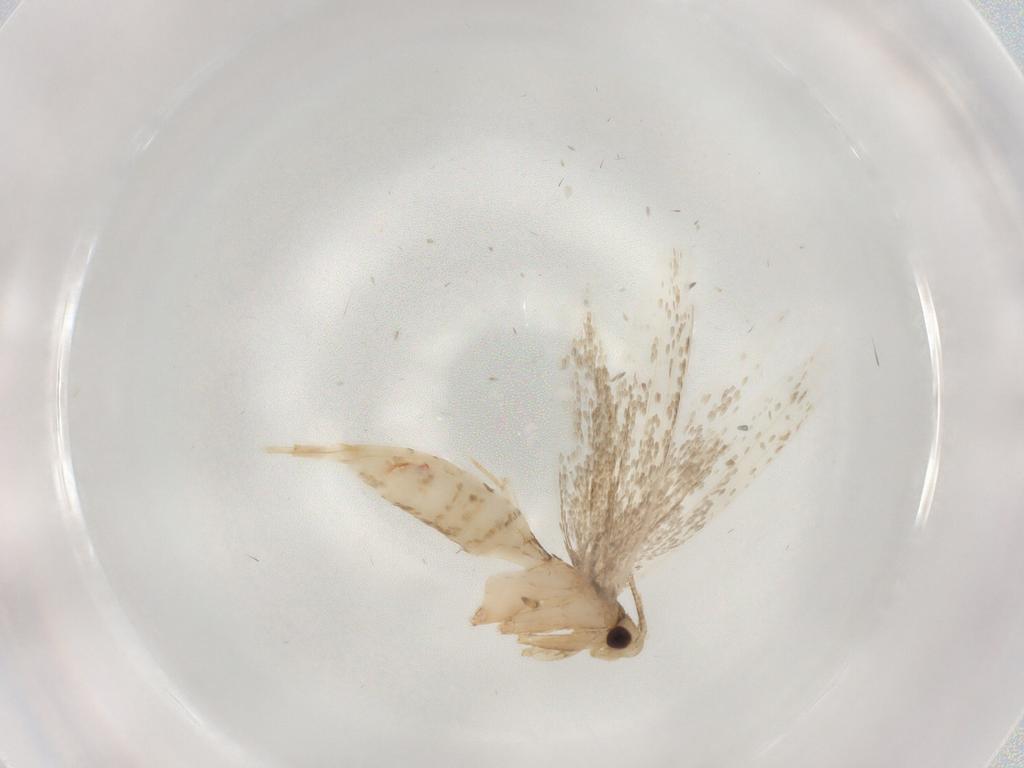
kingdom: Animalia
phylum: Arthropoda
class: Insecta
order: Lepidoptera
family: Tineidae
